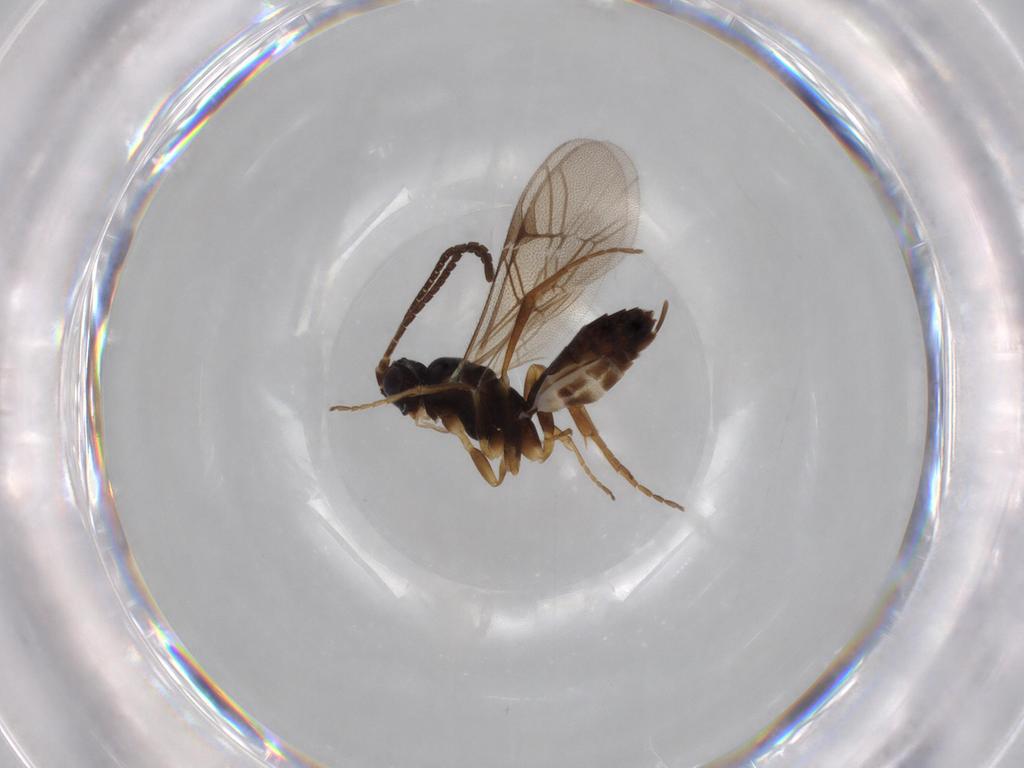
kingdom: Animalia
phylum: Arthropoda
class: Insecta
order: Hymenoptera
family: Ichneumonidae
